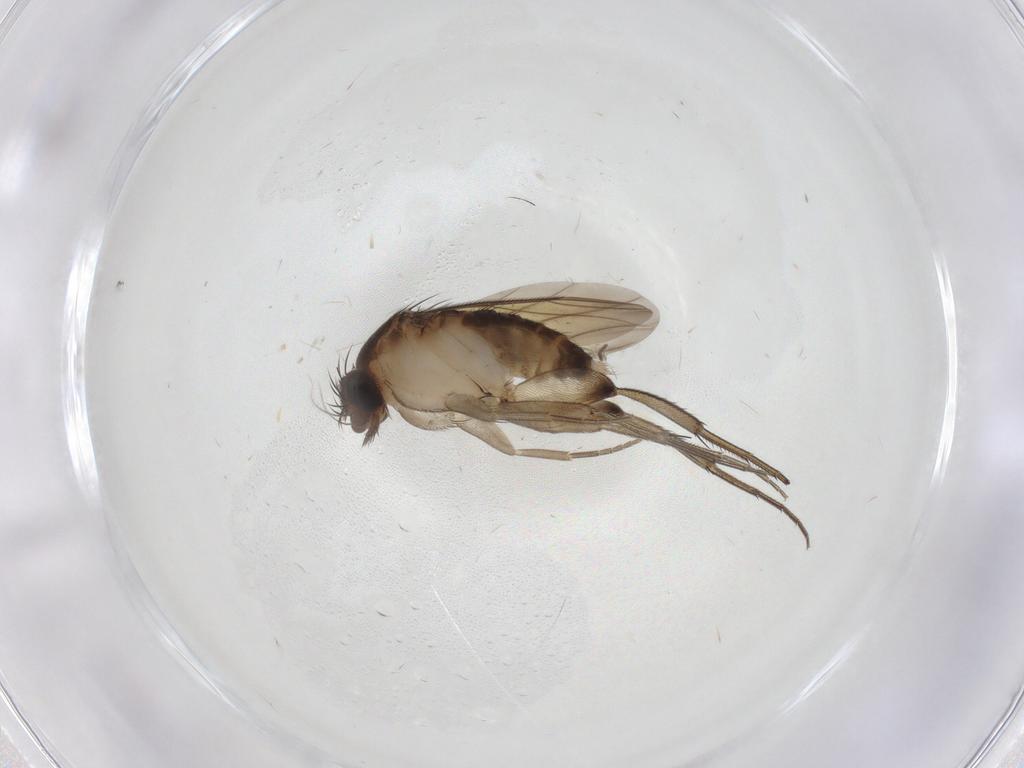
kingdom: Animalia
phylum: Arthropoda
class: Insecta
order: Diptera
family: Phoridae
